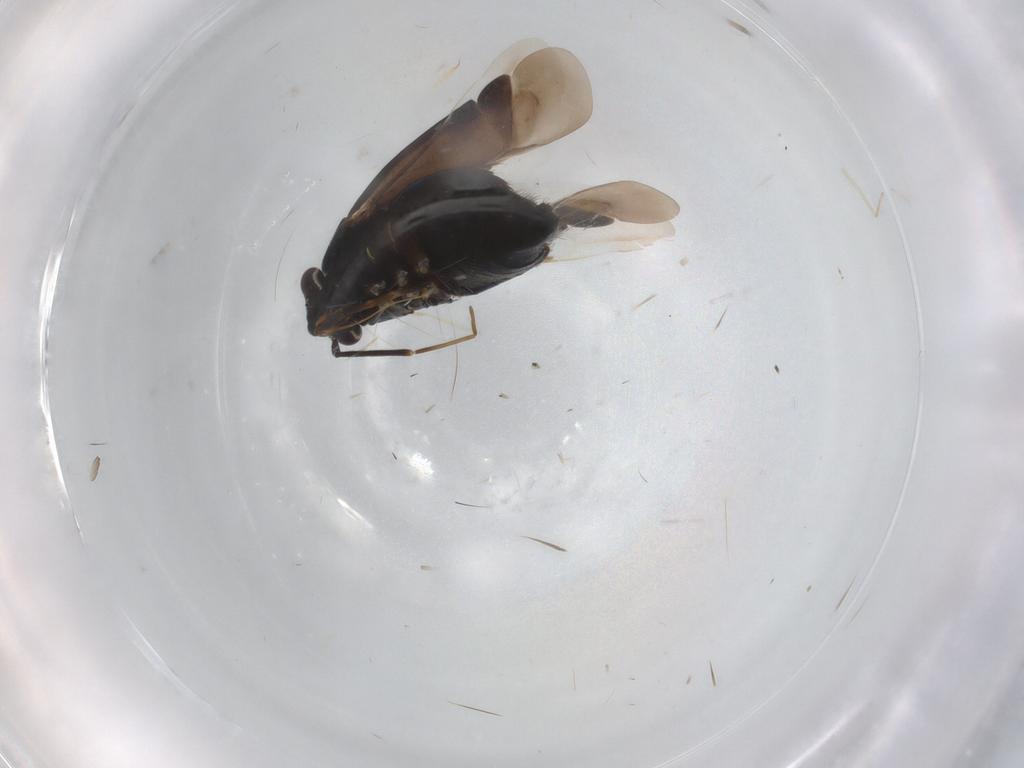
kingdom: Animalia
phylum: Arthropoda
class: Insecta
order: Hemiptera
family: Miridae
